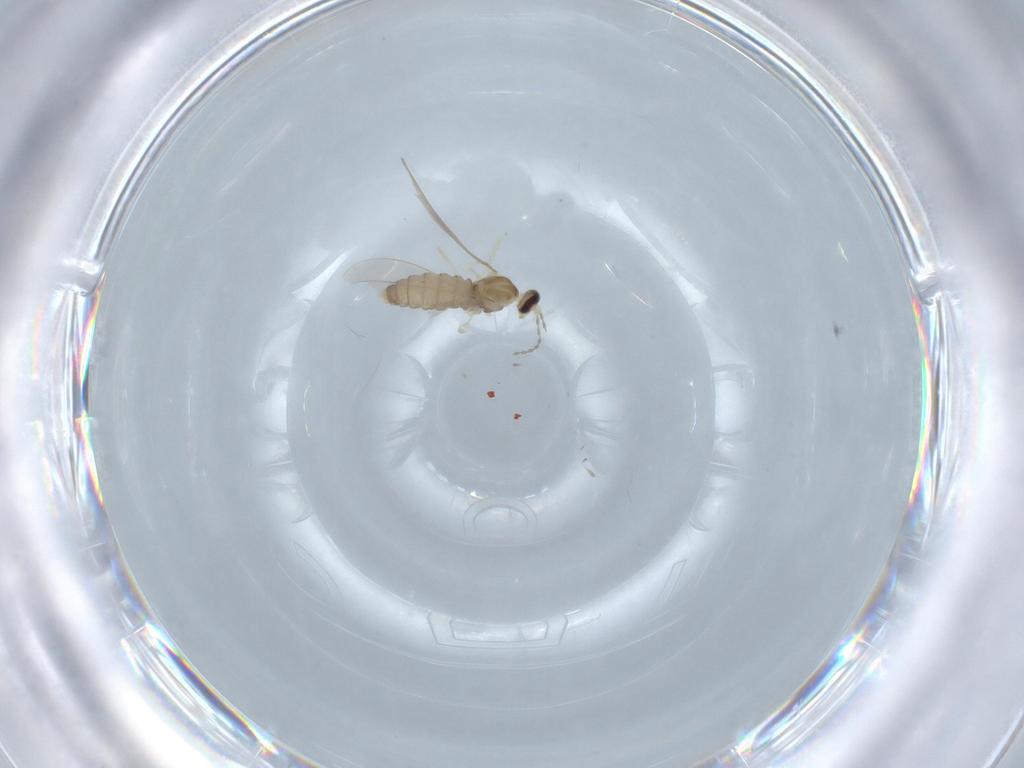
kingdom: Animalia
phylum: Arthropoda
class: Insecta
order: Diptera
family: Cecidomyiidae
